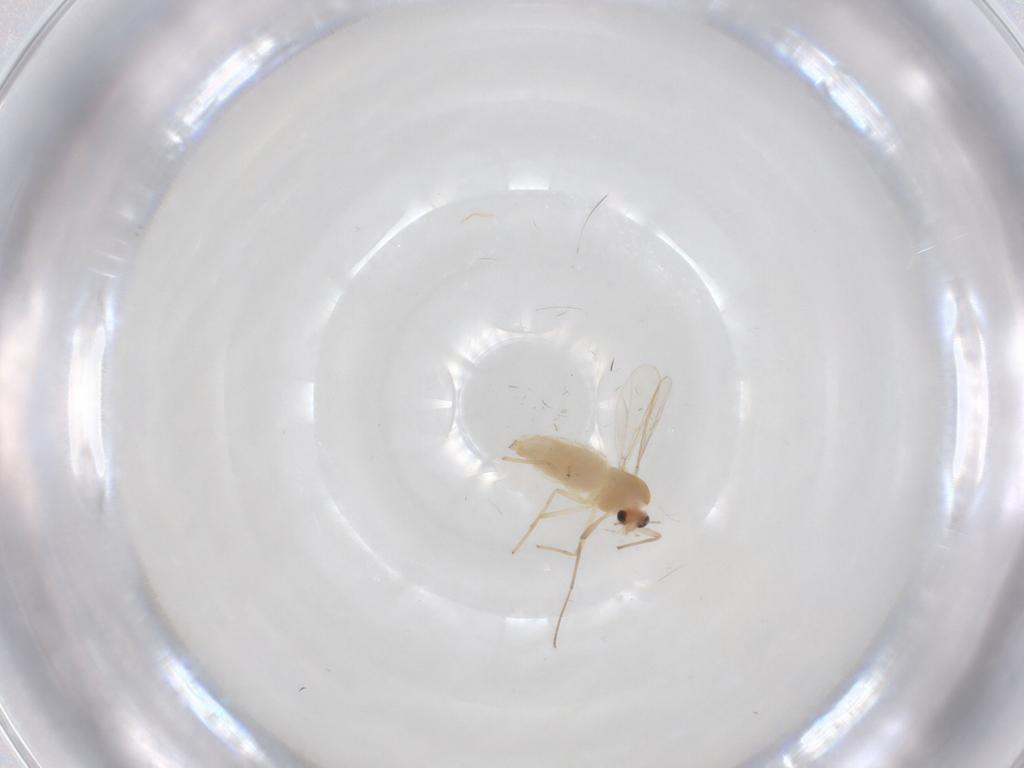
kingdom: Animalia
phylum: Arthropoda
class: Insecta
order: Diptera
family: Chironomidae
